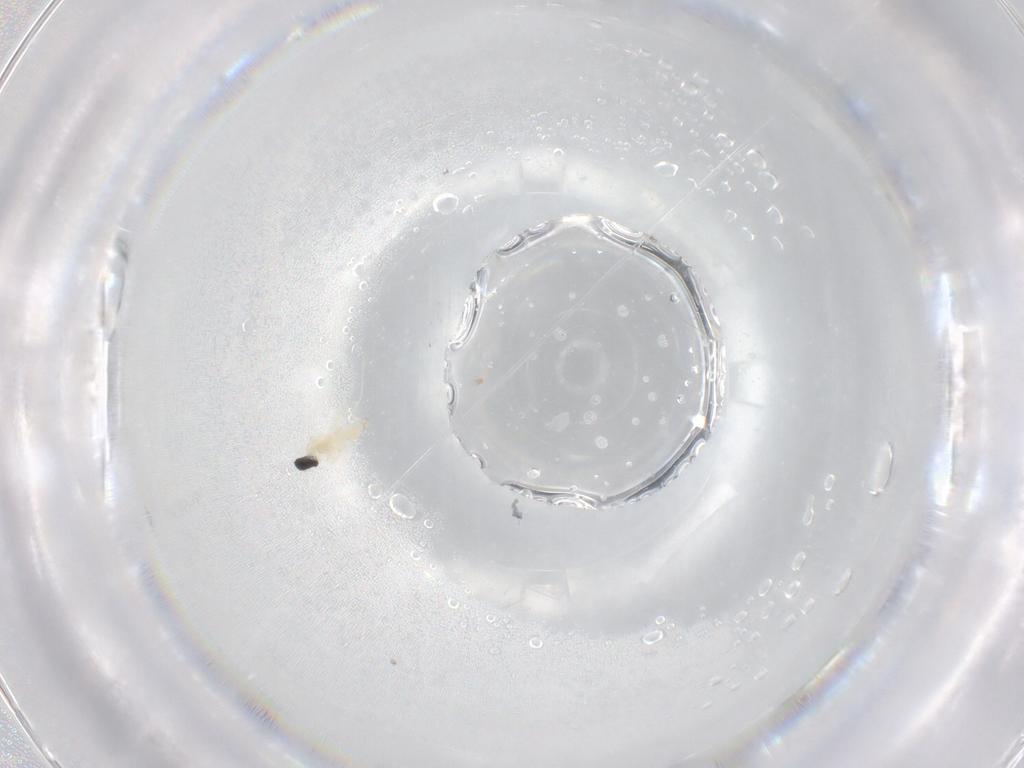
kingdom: Animalia
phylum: Arthropoda
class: Insecta
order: Diptera
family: Cecidomyiidae
